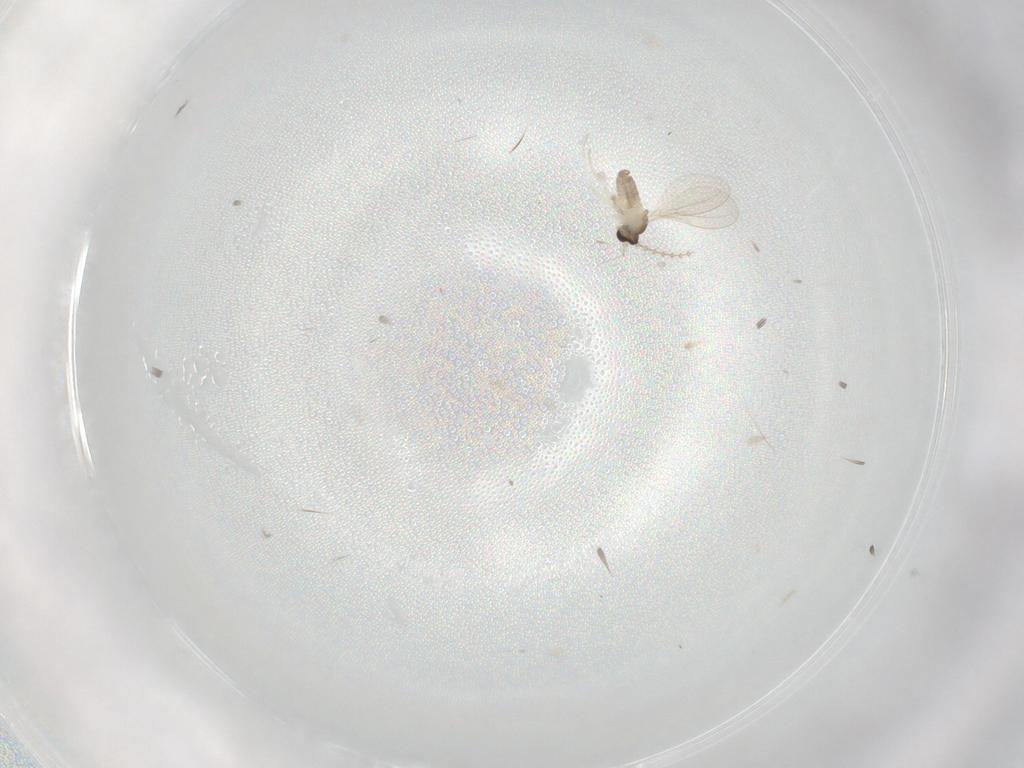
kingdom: Animalia
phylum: Arthropoda
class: Insecta
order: Diptera
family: Cecidomyiidae
